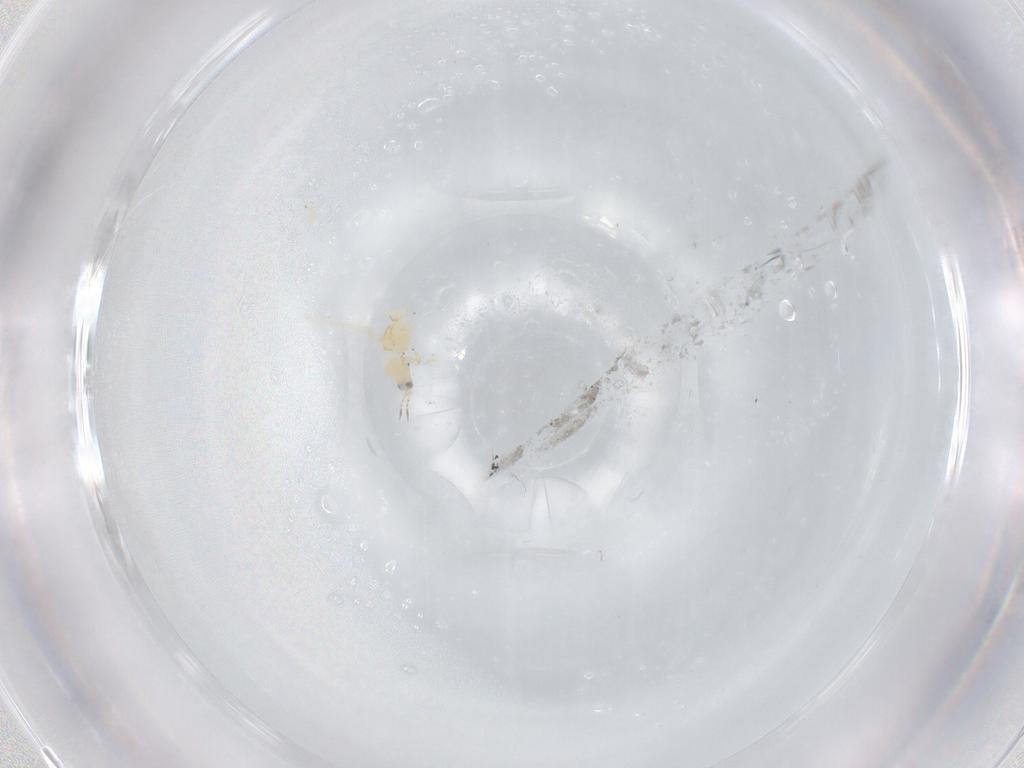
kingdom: Animalia
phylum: Arthropoda
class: Insecta
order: Thysanoptera
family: Thripidae
